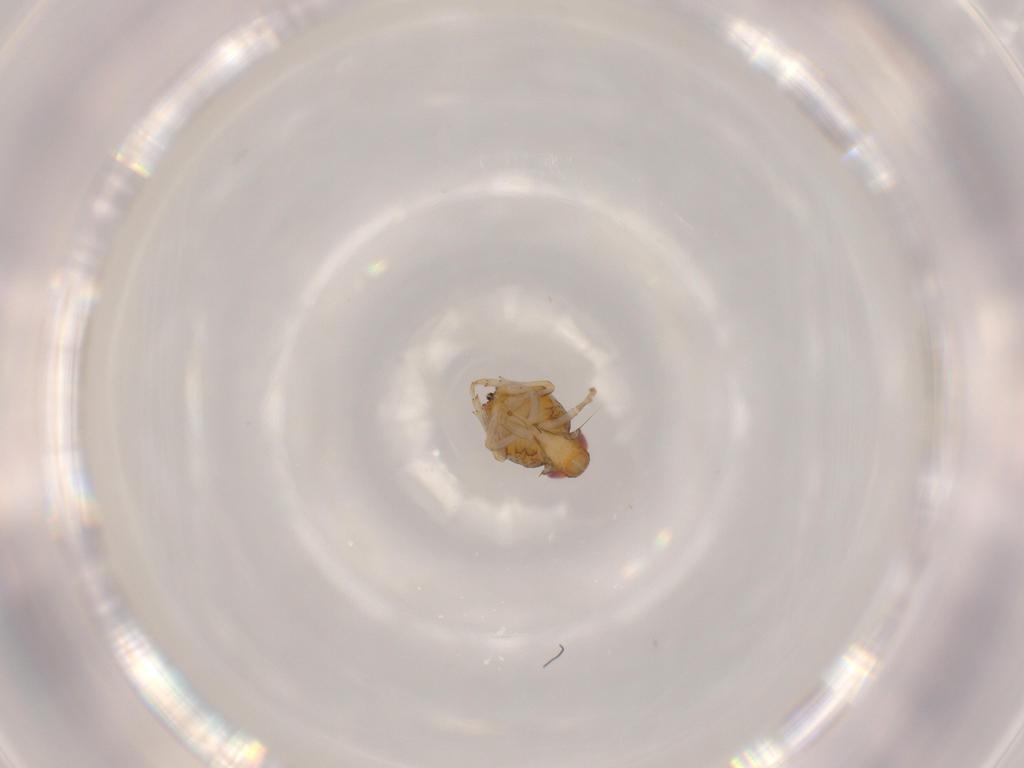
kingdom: Animalia
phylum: Arthropoda
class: Insecta
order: Hemiptera
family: Issidae
